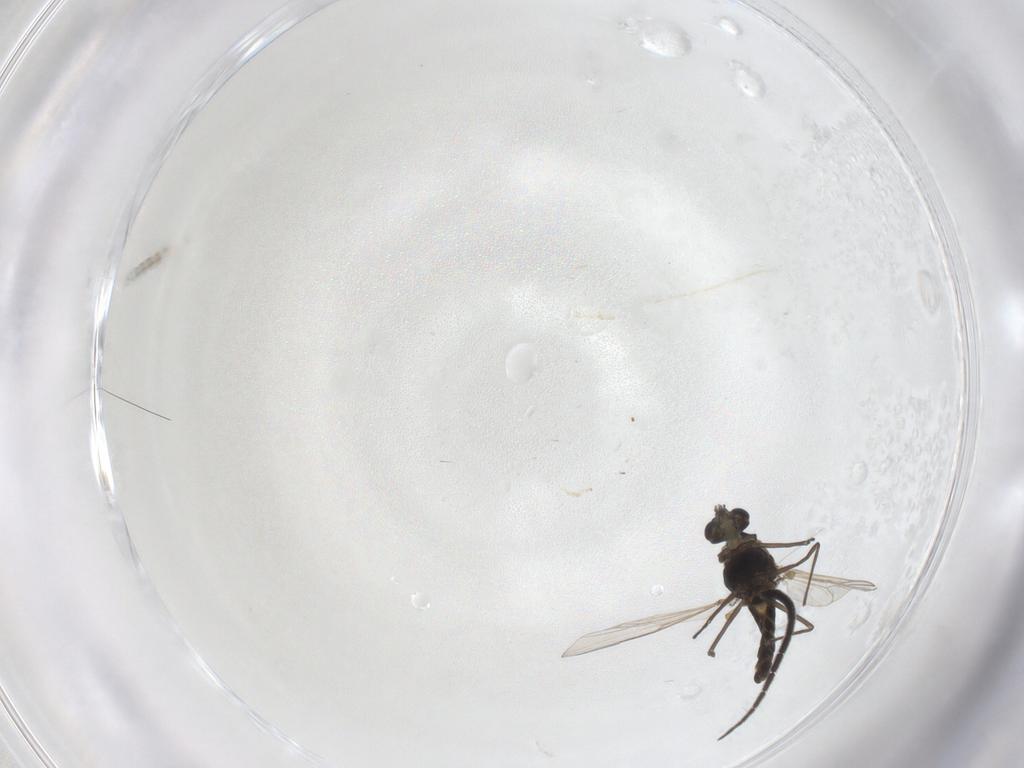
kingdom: Animalia
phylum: Arthropoda
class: Insecta
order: Diptera
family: Chironomidae
